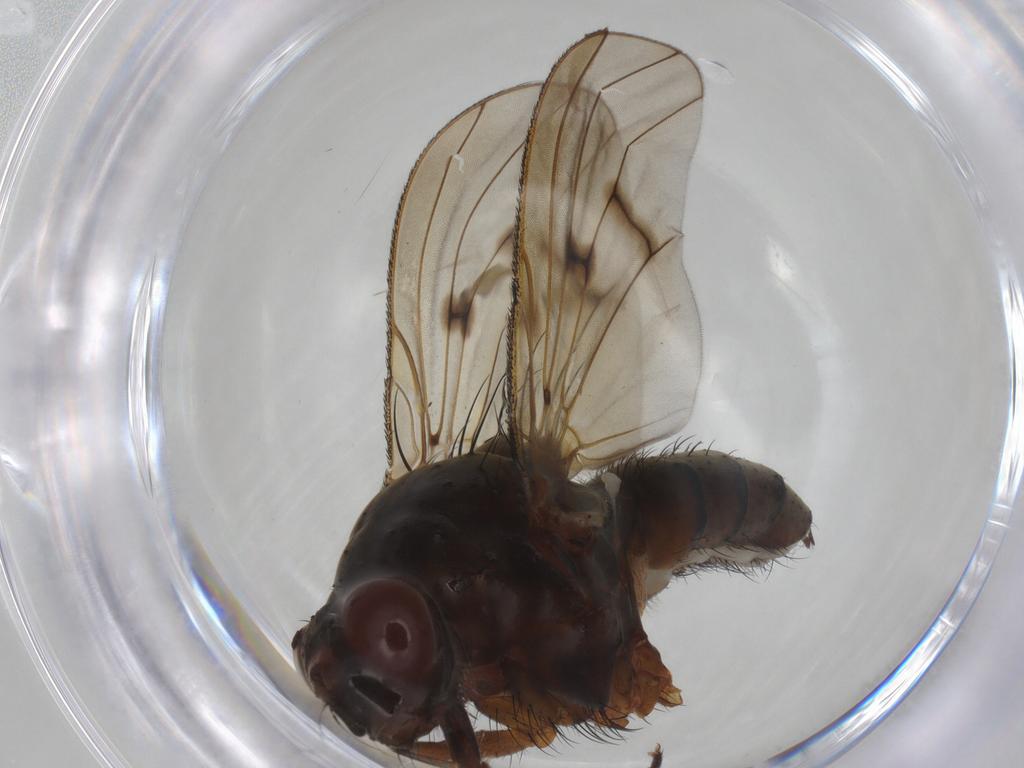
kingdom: Animalia
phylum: Arthropoda
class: Insecta
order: Diptera
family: Anthomyiidae
